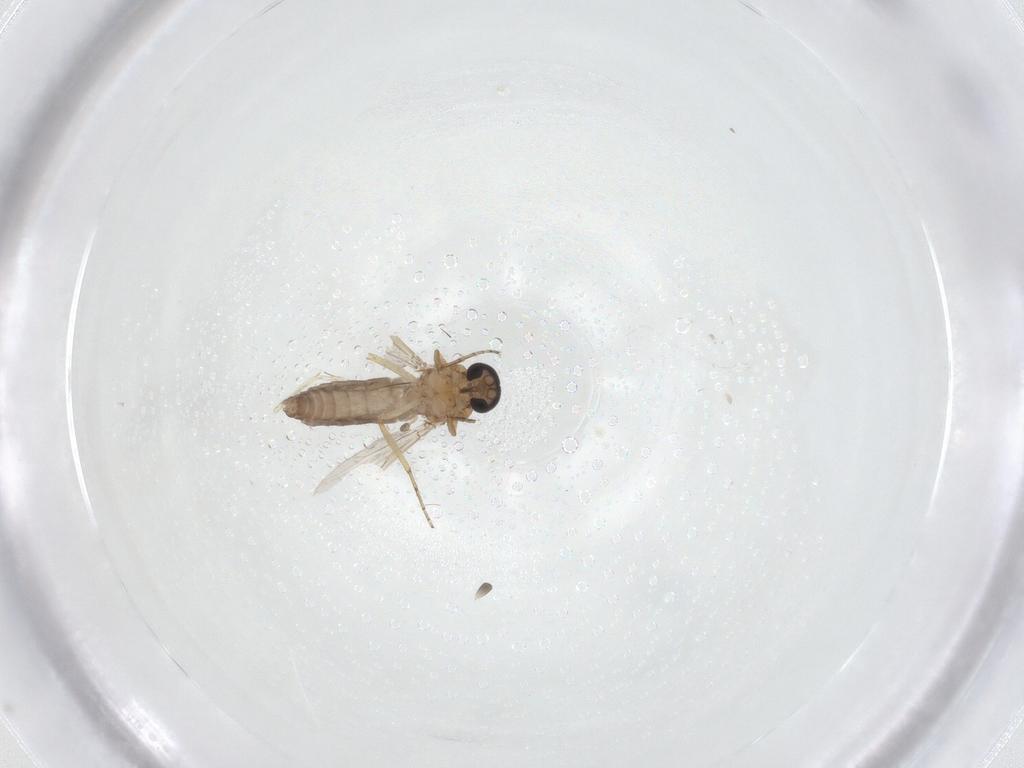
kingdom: Animalia
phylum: Arthropoda
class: Insecta
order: Diptera
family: Ceratopogonidae
